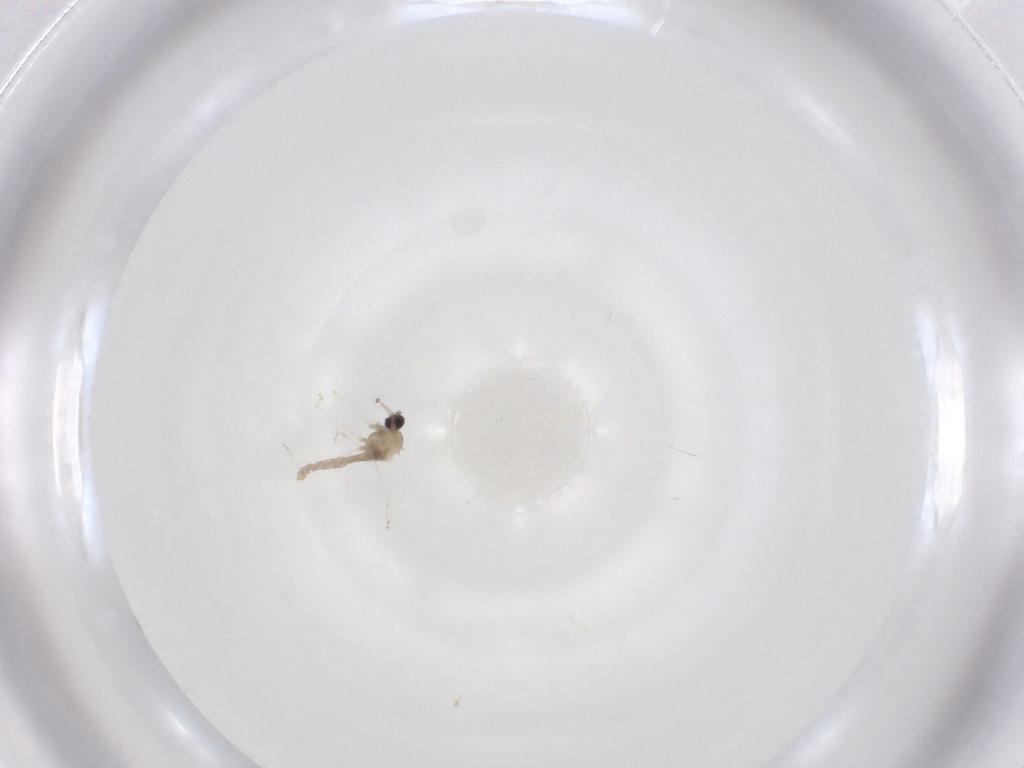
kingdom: Animalia
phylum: Arthropoda
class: Insecta
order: Diptera
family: Cecidomyiidae
